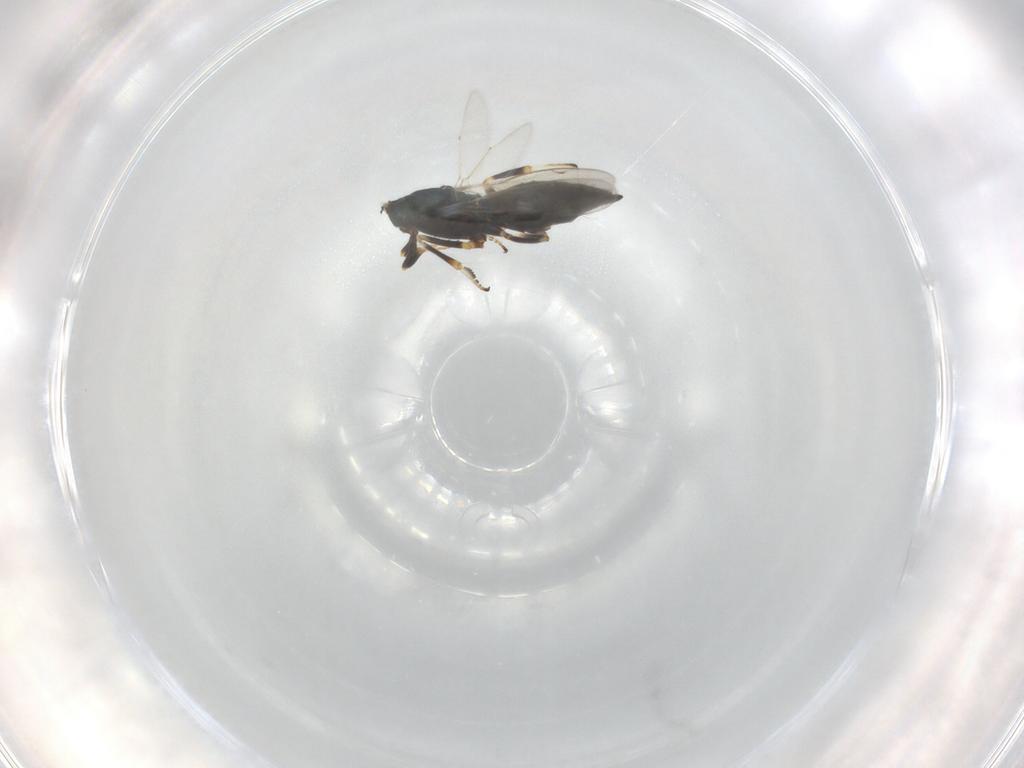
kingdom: Animalia
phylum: Arthropoda
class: Insecta
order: Hymenoptera
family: Eupelmidae
